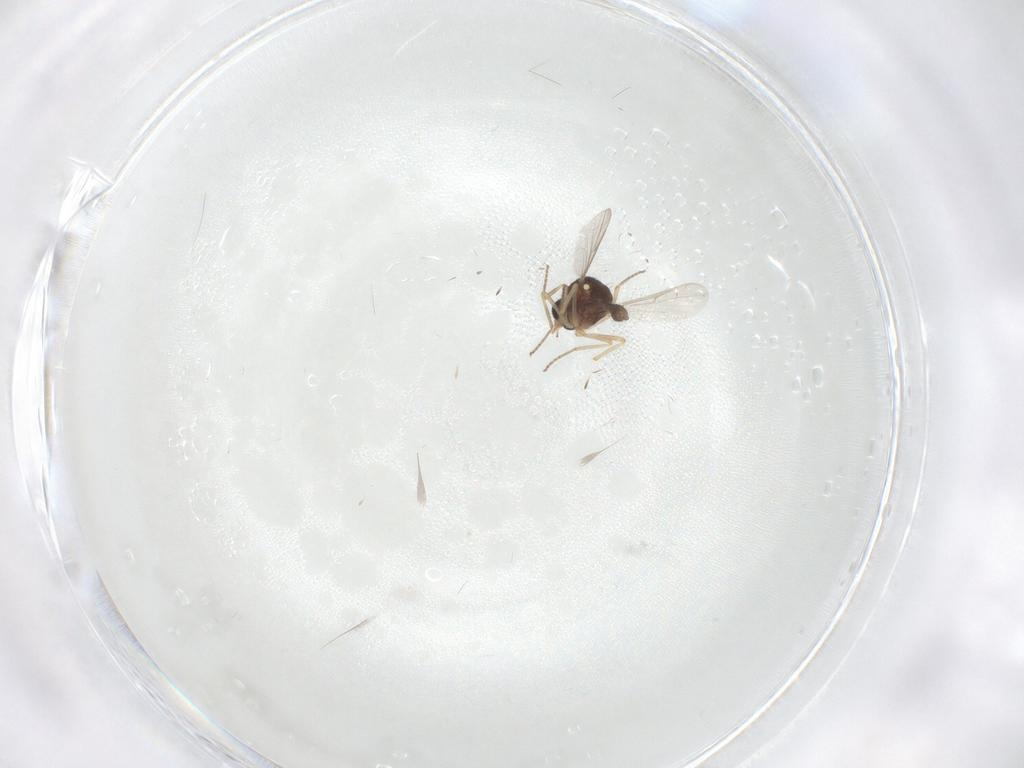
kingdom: Animalia
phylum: Arthropoda
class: Insecta
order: Diptera
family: Ceratopogonidae
